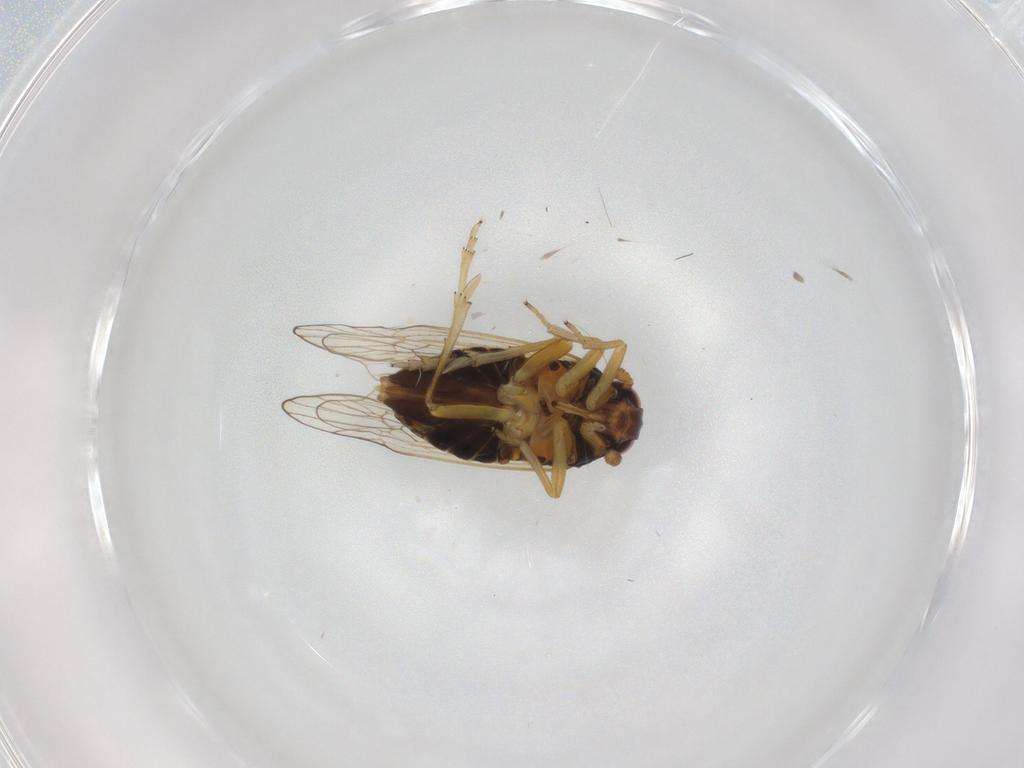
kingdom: Animalia
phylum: Arthropoda
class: Insecta
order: Hemiptera
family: Delphacidae
